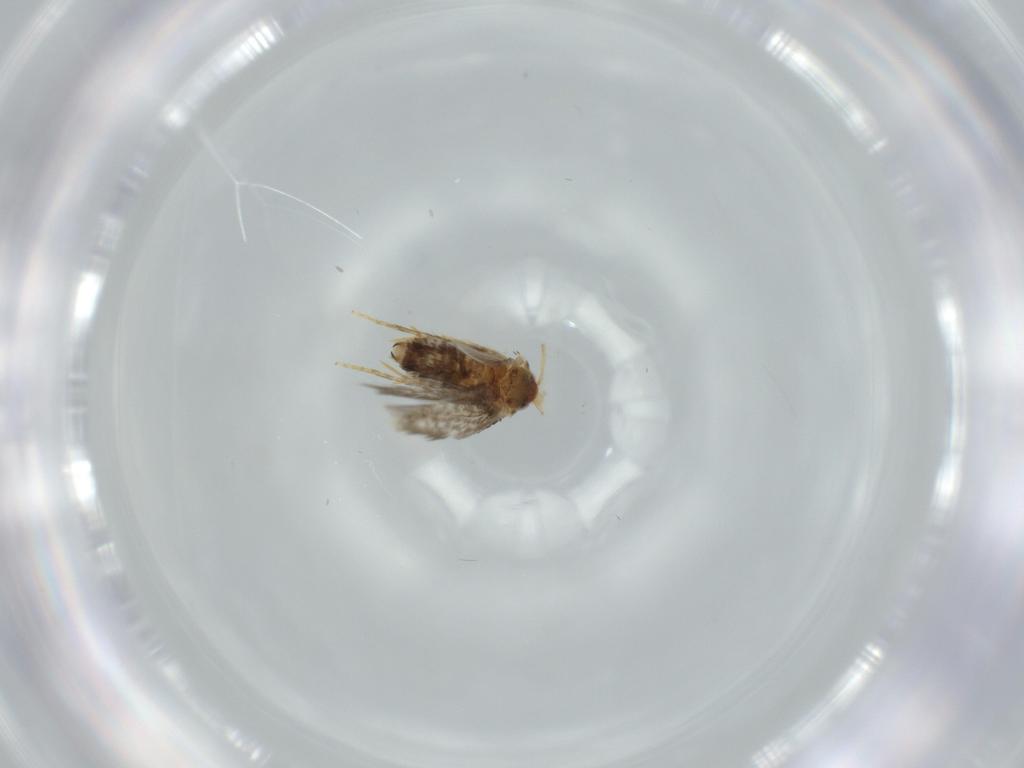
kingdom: Animalia
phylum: Arthropoda
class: Insecta
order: Lepidoptera
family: Copromorphidae
